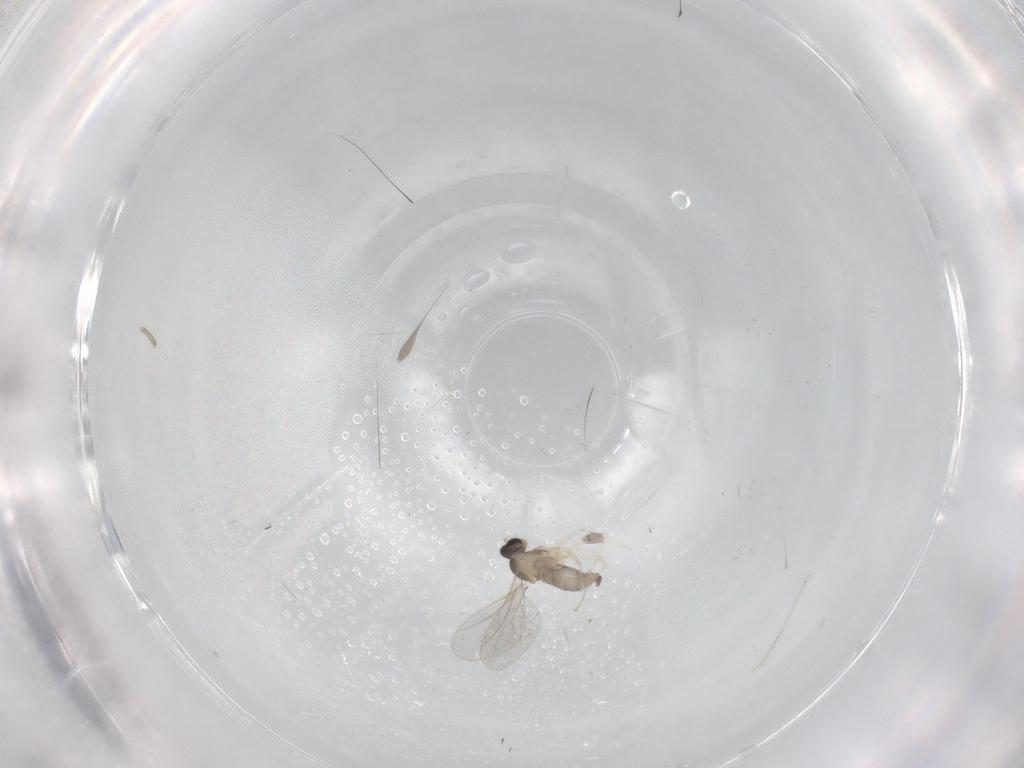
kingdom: Animalia
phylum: Arthropoda
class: Insecta
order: Diptera
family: Cecidomyiidae
